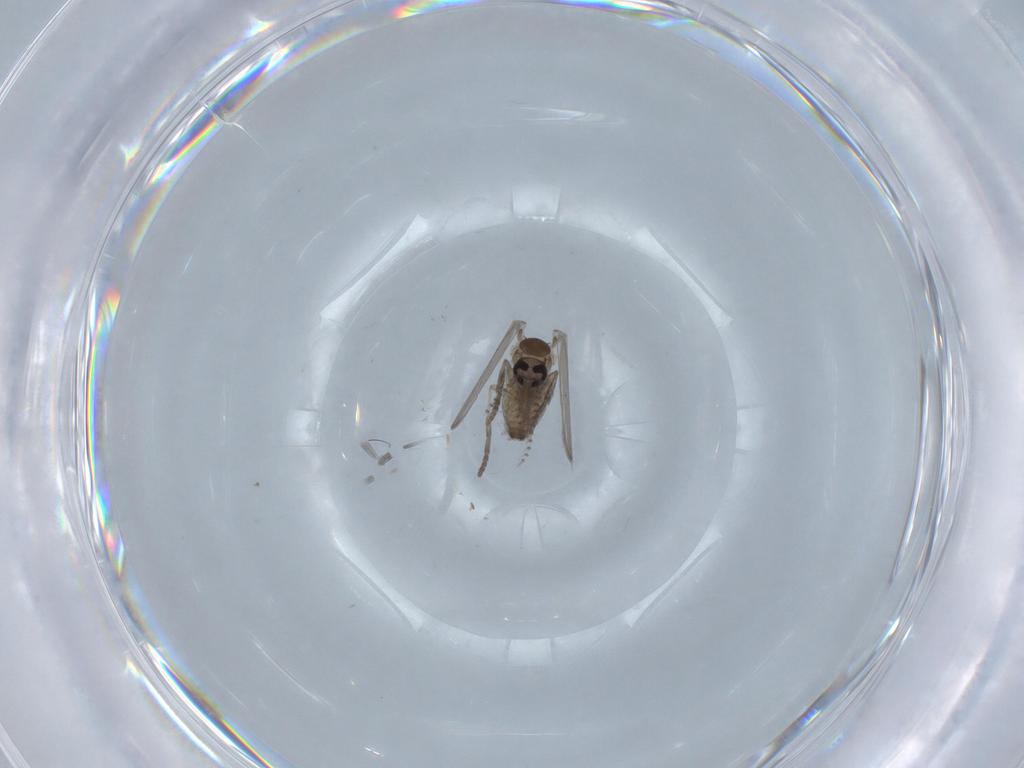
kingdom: Animalia
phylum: Arthropoda
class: Insecta
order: Diptera
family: Psychodidae
